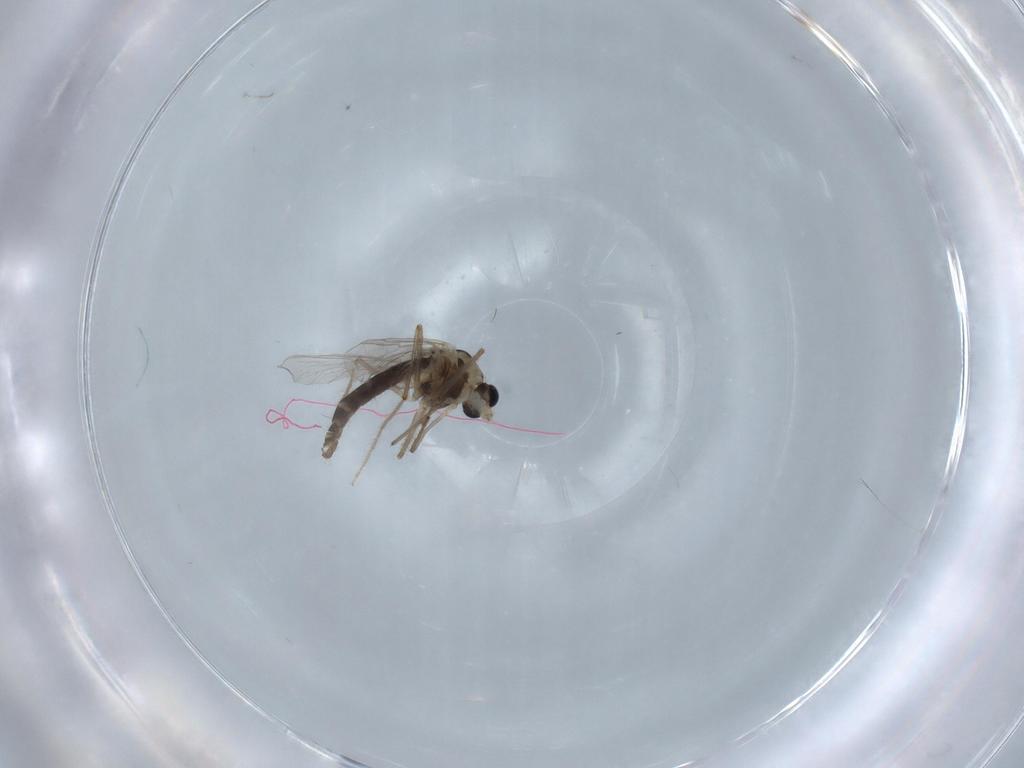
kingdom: Animalia
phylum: Arthropoda
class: Insecta
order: Diptera
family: Chironomidae
